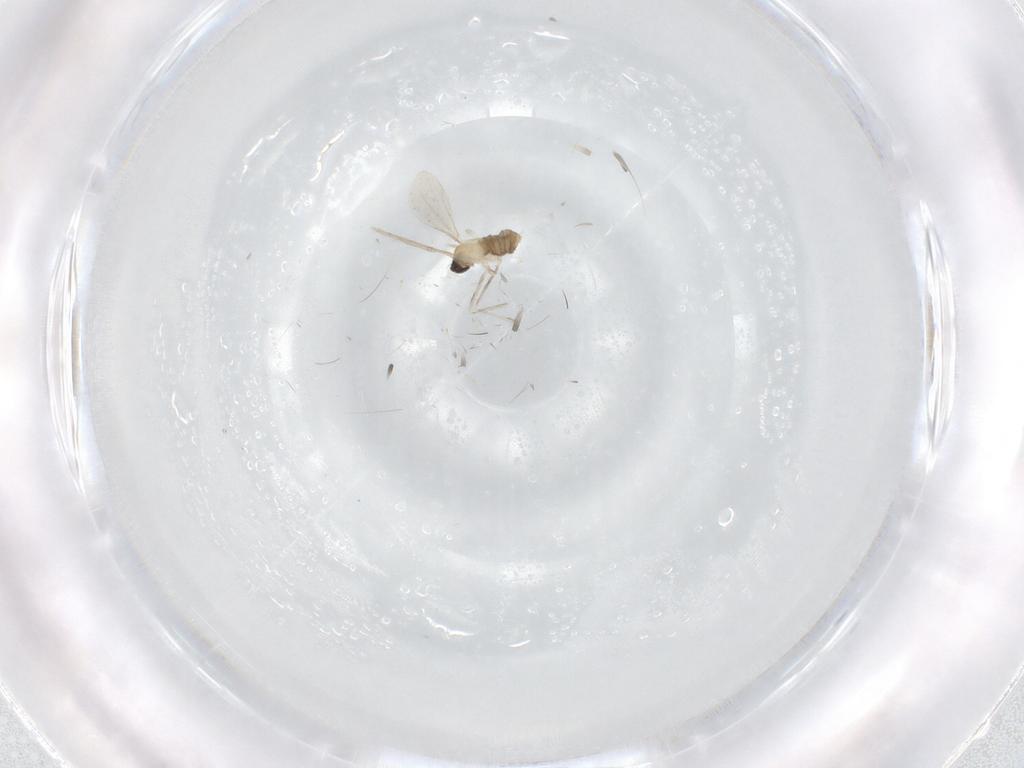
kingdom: Animalia
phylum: Arthropoda
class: Insecta
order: Diptera
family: Cecidomyiidae
